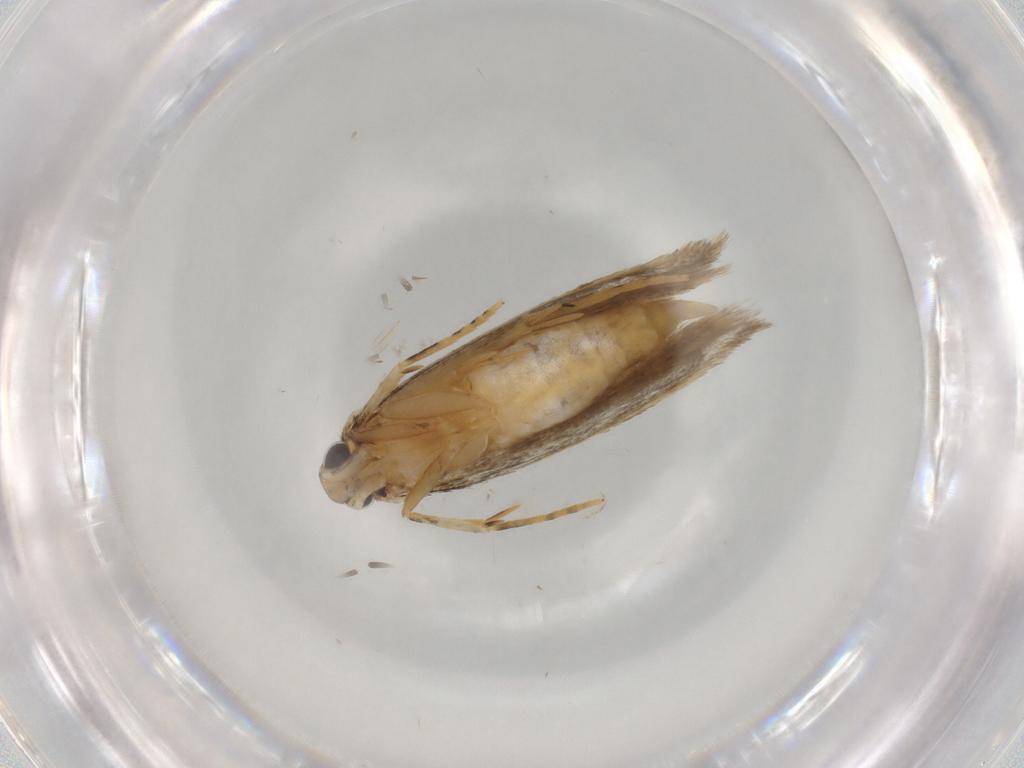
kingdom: Animalia
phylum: Arthropoda
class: Insecta
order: Lepidoptera
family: Autostichidae
